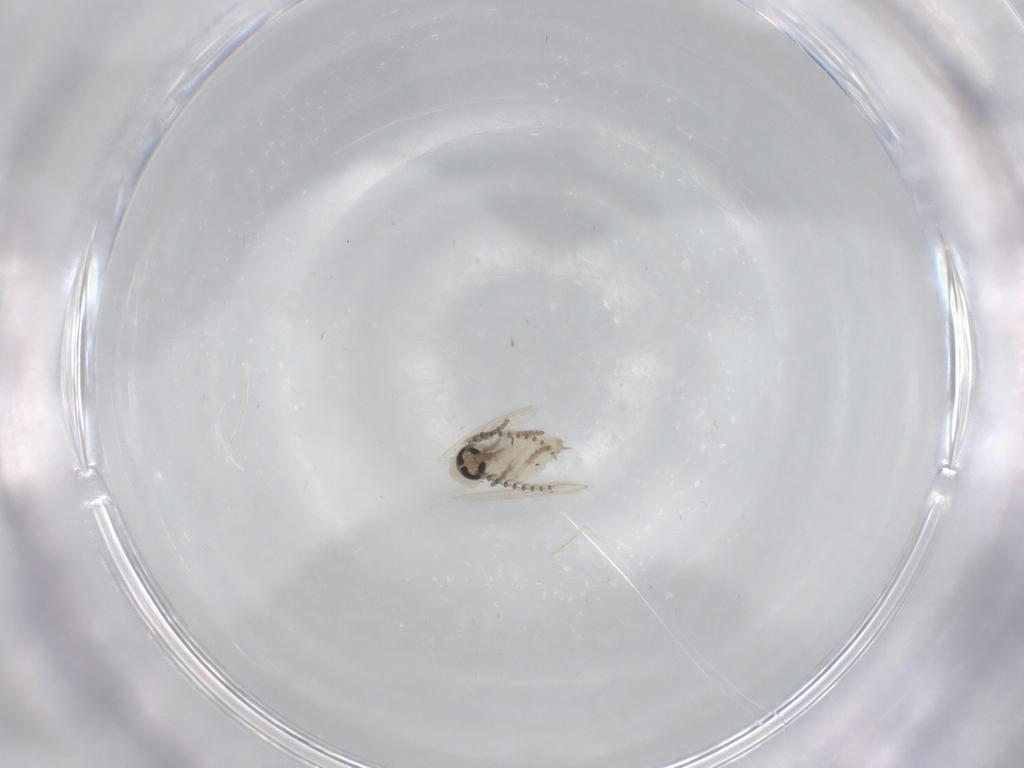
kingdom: Animalia
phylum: Arthropoda
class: Insecta
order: Diptera
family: Psychodidae
